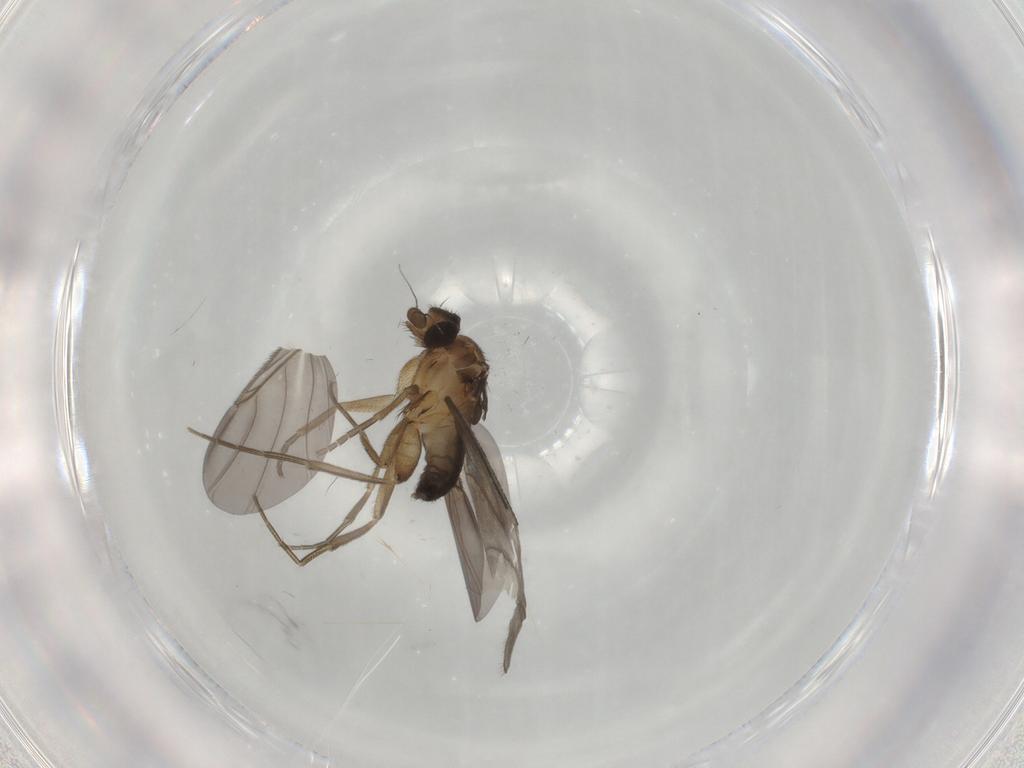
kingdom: Animalia
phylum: Arthropoda
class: Insecta
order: Diptera
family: Phoridae
